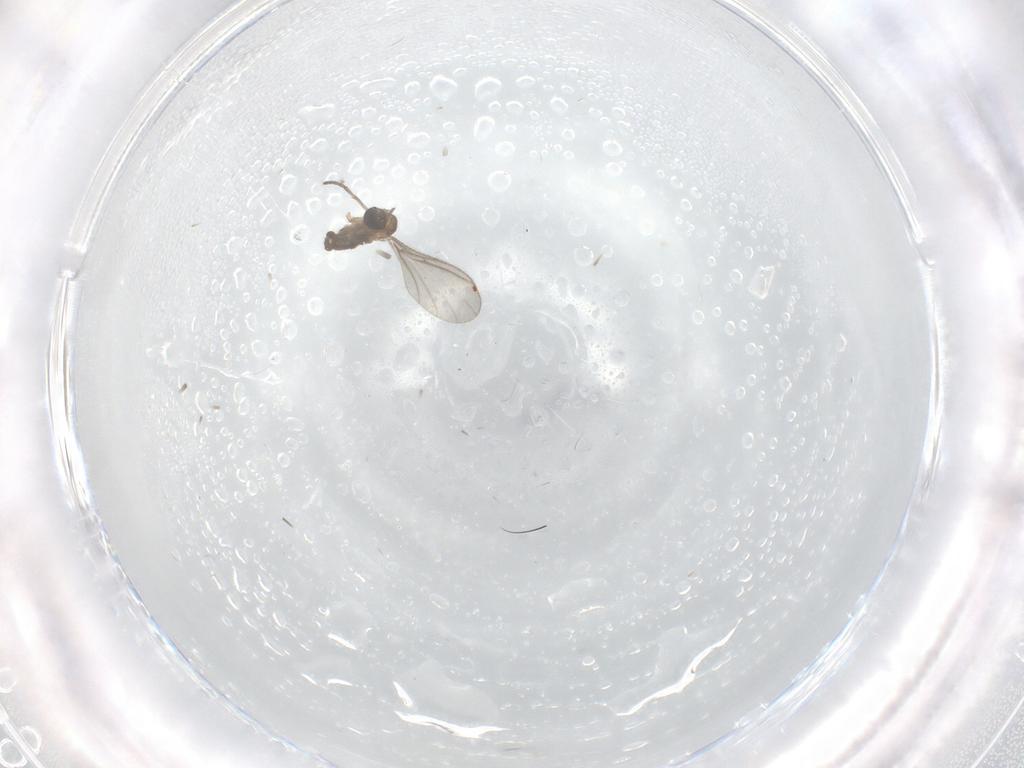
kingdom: Animalia
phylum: Arthropoda
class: Insecta
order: Diptera
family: Sciaridae
